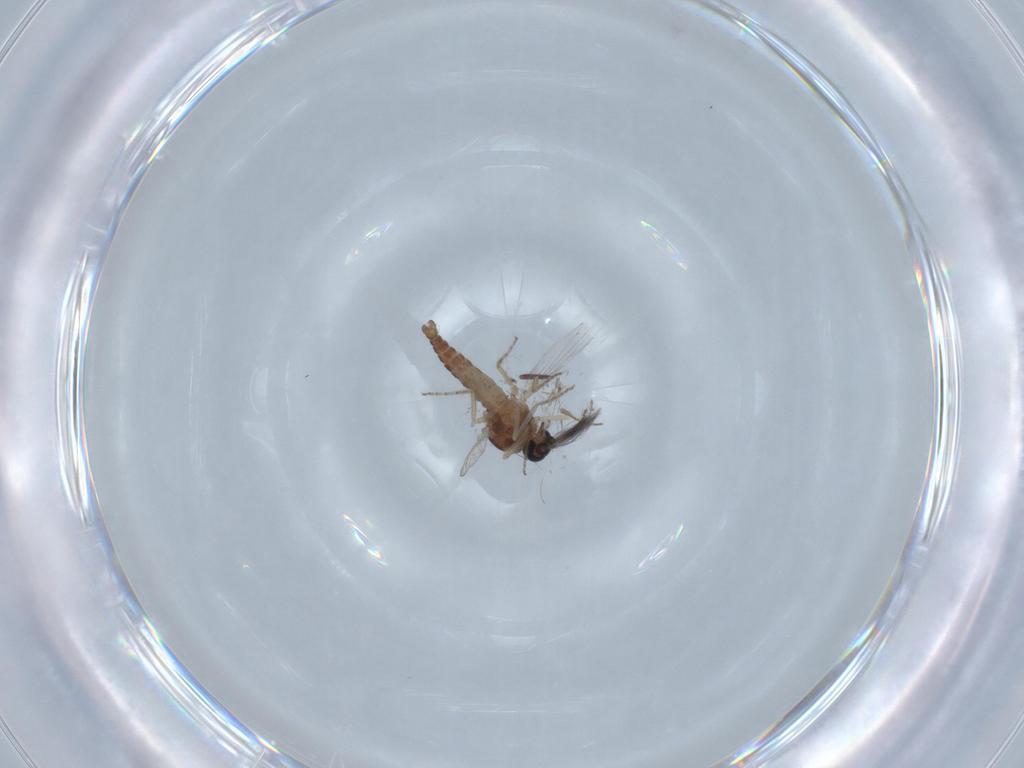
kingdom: Animalia
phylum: Arthropoda
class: Insecta
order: Diptera
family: Ceratopogonidae
